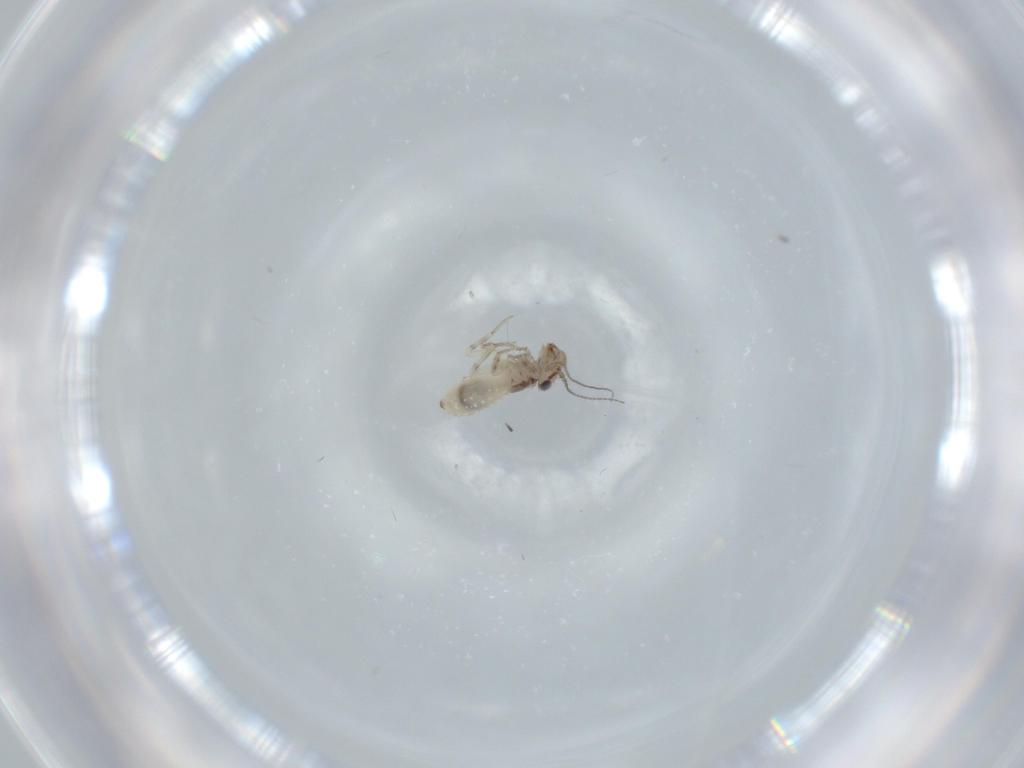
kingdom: Animalia
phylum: Arthropoda
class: Insecta
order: Psocodea
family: Lepidopsocidae
